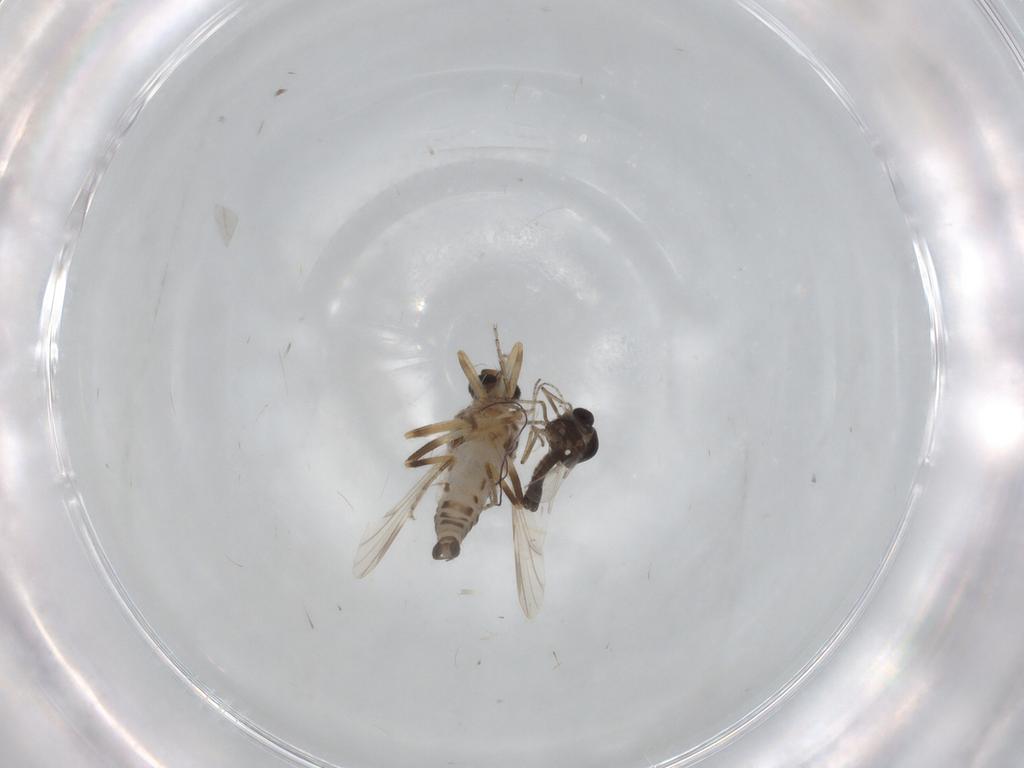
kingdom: Animalia
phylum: Arthropoda
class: Insecta
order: Diptera
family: Ceratopogonidae
